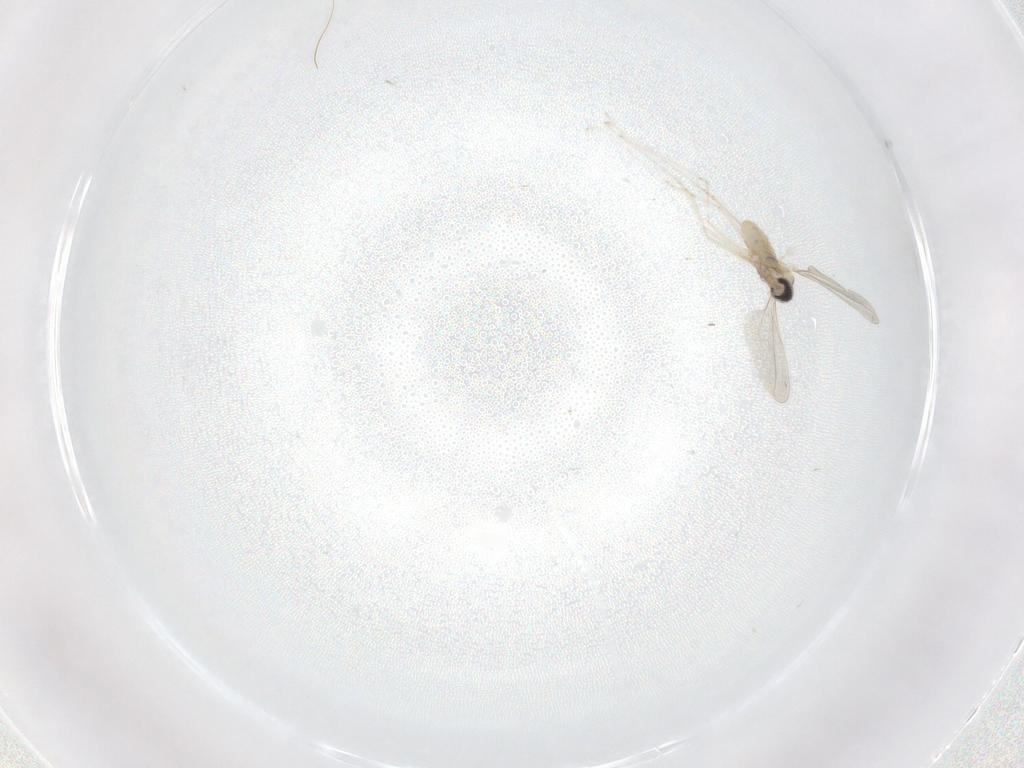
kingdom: Animalia
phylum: Arthropoda
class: Insecta
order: Diptera
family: Cecidomyiidae
